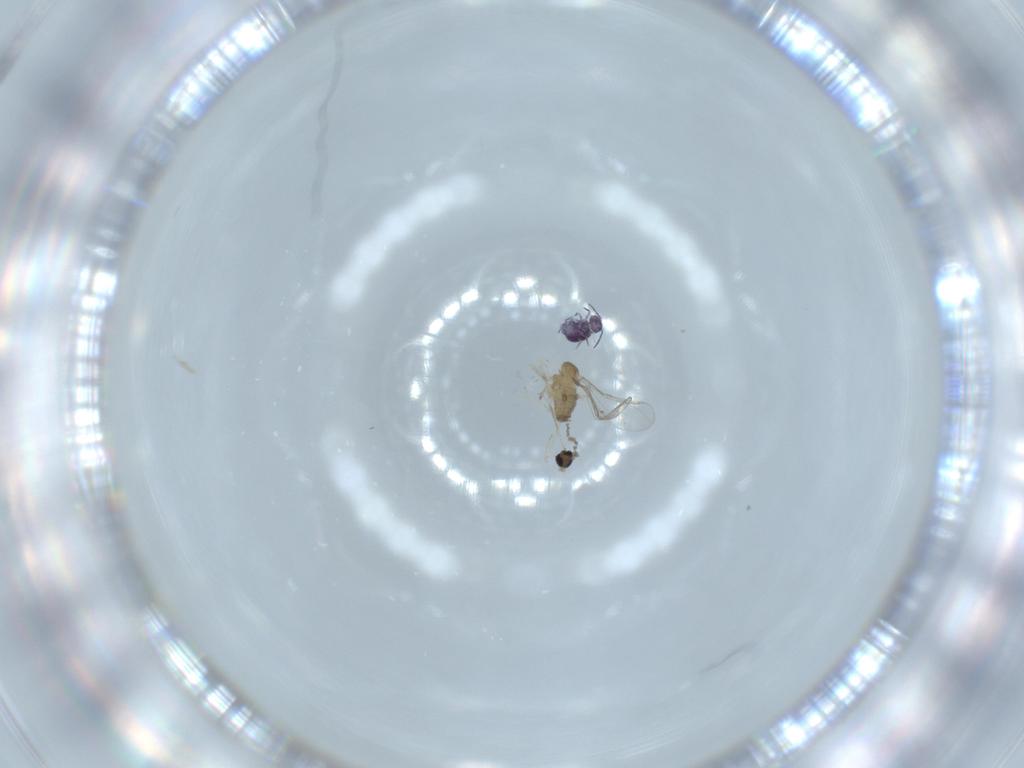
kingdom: Animalia
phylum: Arthropoda
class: Insecta
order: Diptera
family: Cecidomyiidae
